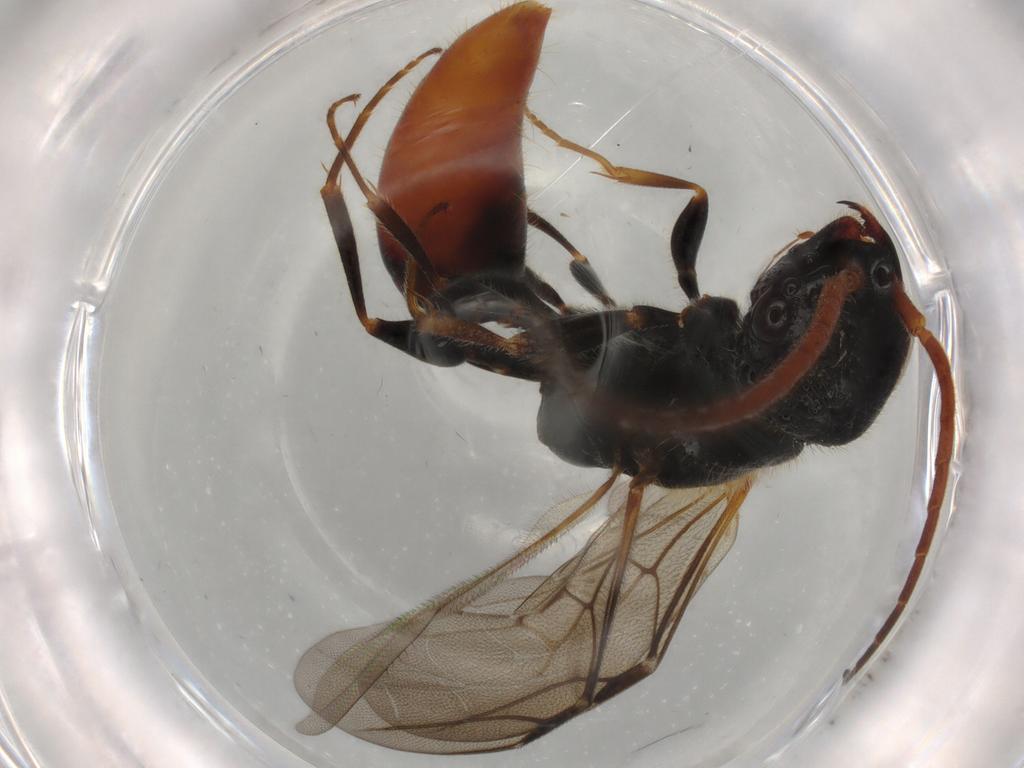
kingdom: Animalia
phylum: Arthropoda
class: Insecta
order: Hymenoptera
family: Bethylidae
